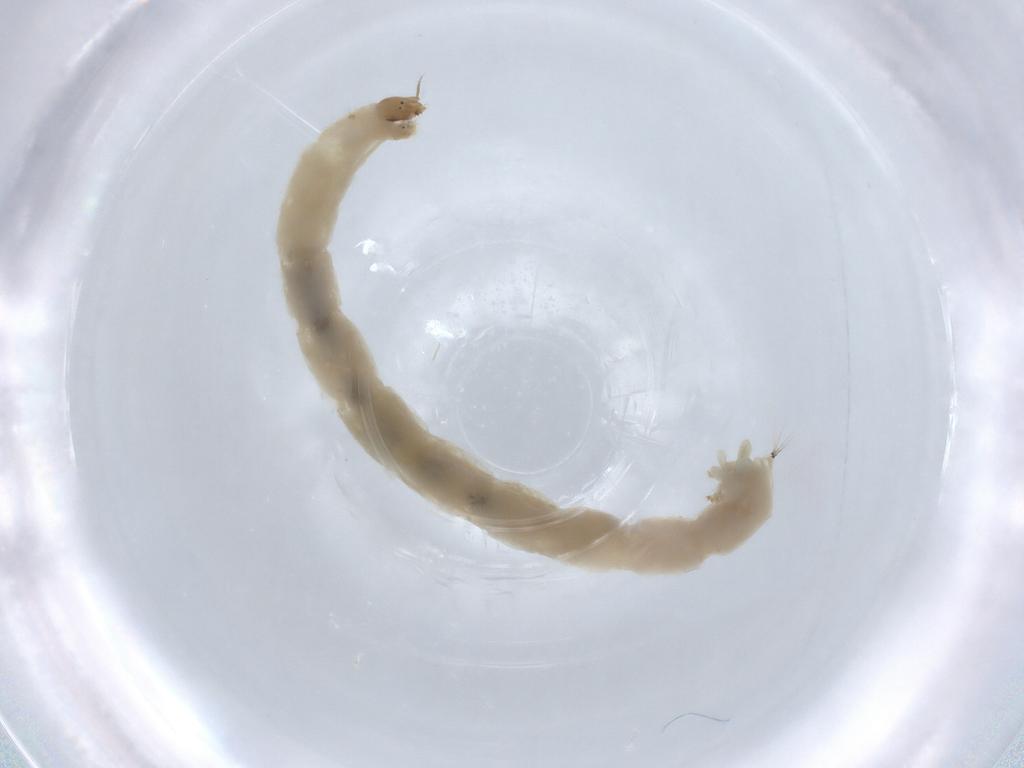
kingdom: Animalia
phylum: Arthropoda
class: Insecta
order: Diptera
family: Chironomidae
